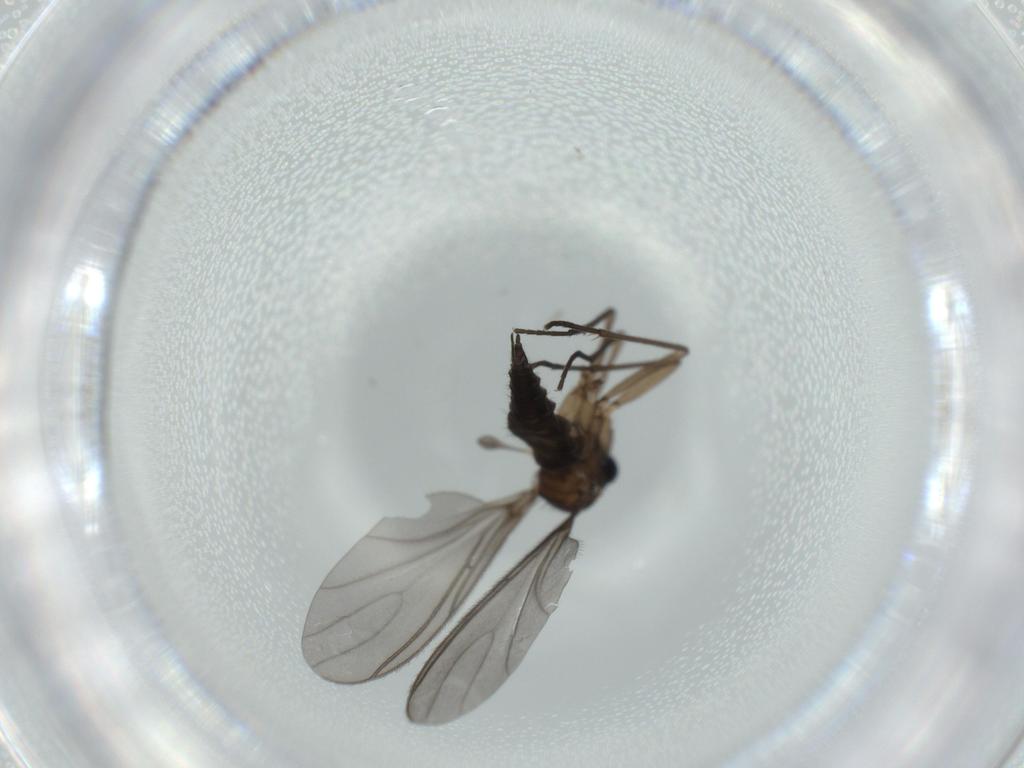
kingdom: Animalia
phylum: Arthropoda
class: Insecta
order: Diptera
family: Sciaridae
